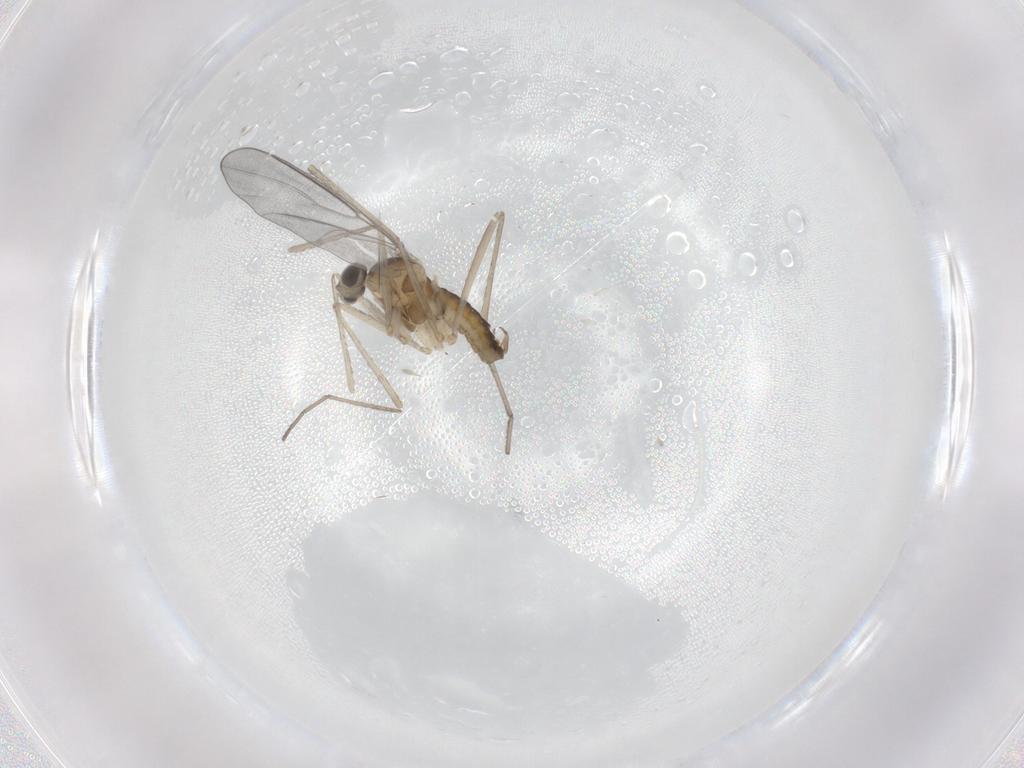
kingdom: Animalia
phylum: Arthropoda
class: Insecta
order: Diptera
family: Cecidomyiidae
